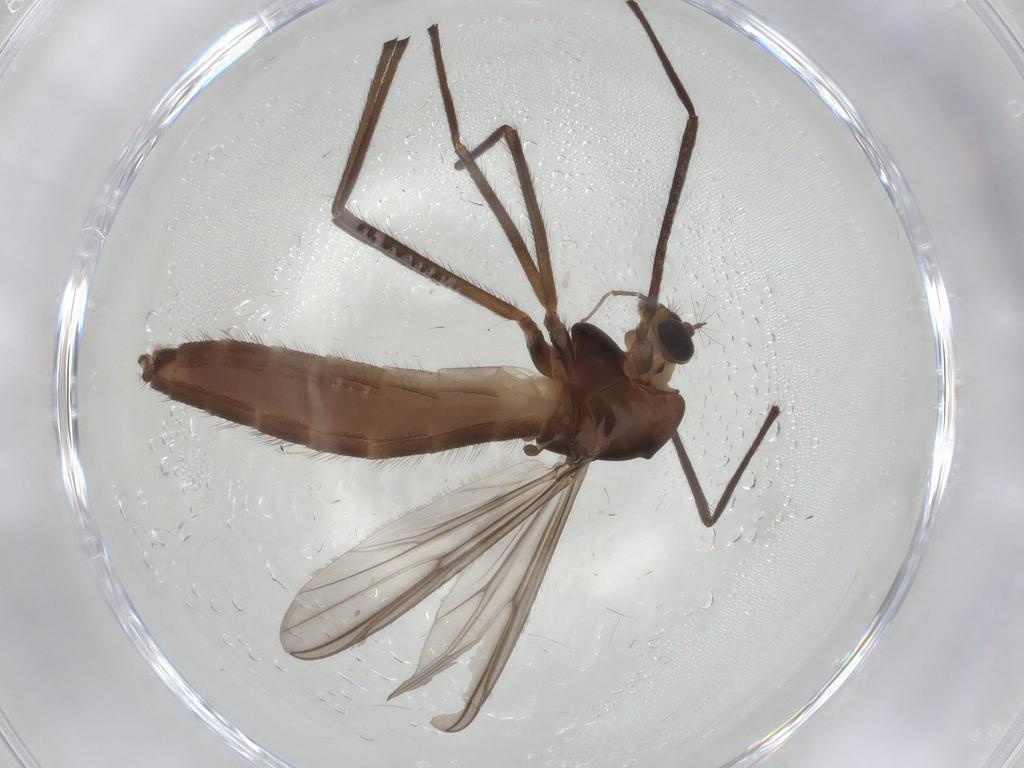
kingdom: Animalia
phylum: Arthropoda
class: Insecta
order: Diptera
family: Chironomidae
